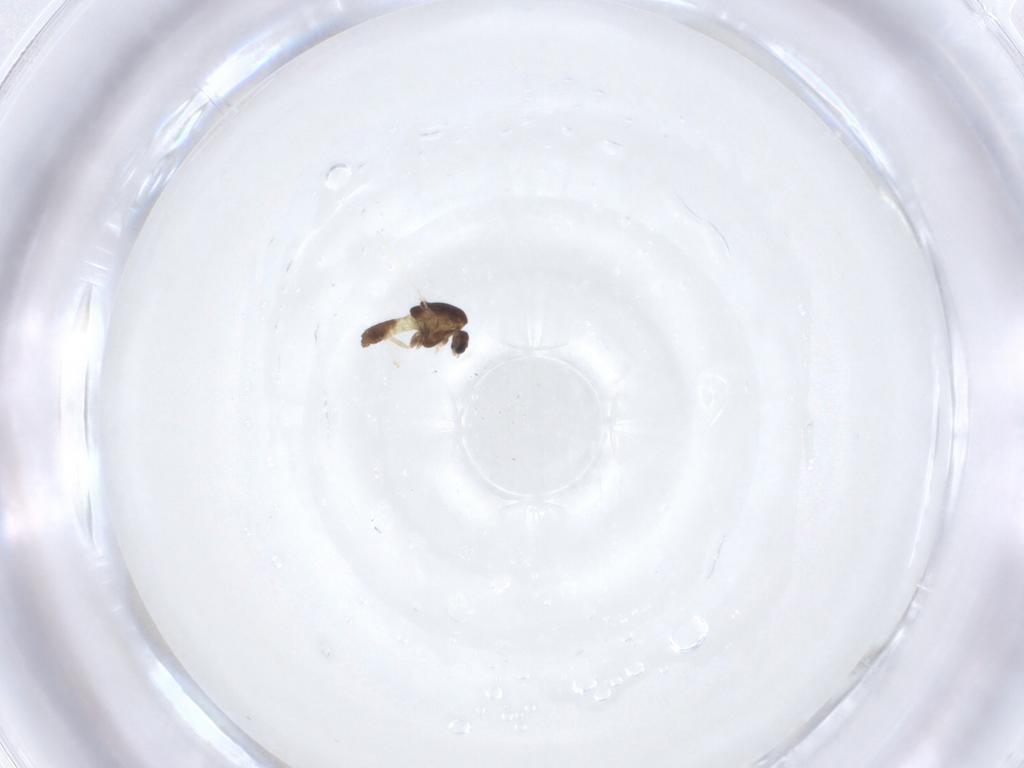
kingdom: Animalia
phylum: Arthropoda
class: Insecta
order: Diptera
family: Chironomidae
